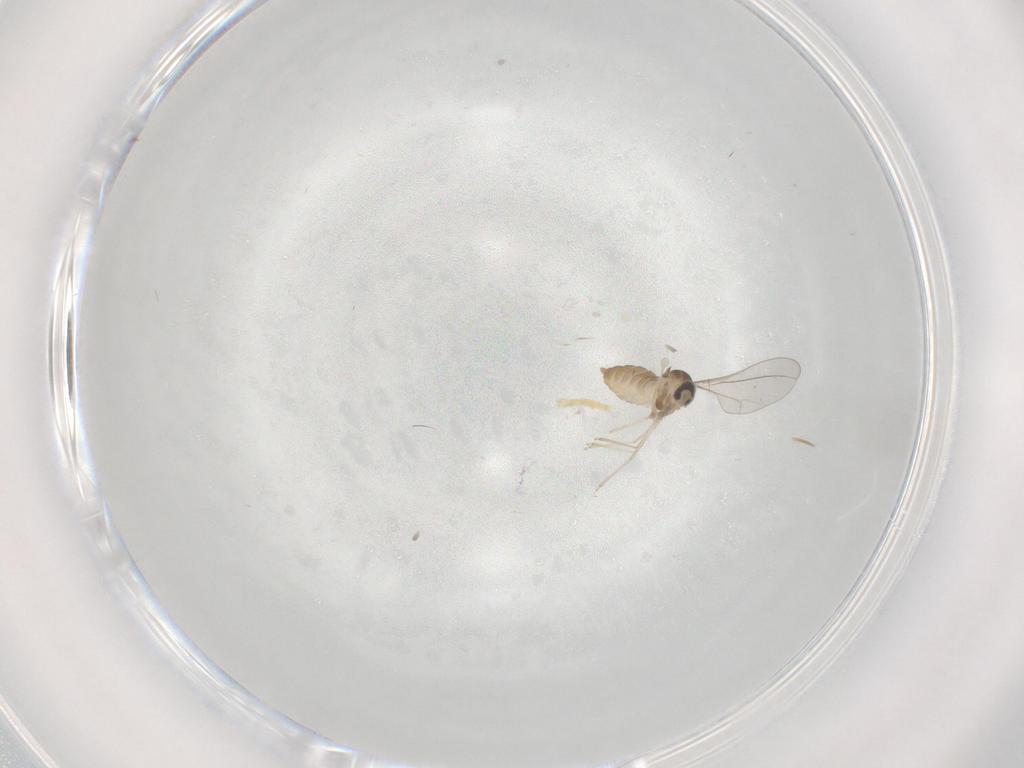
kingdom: Animalia
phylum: Arthropoda
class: Insecta
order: Diptera
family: Cecidomyiidae
